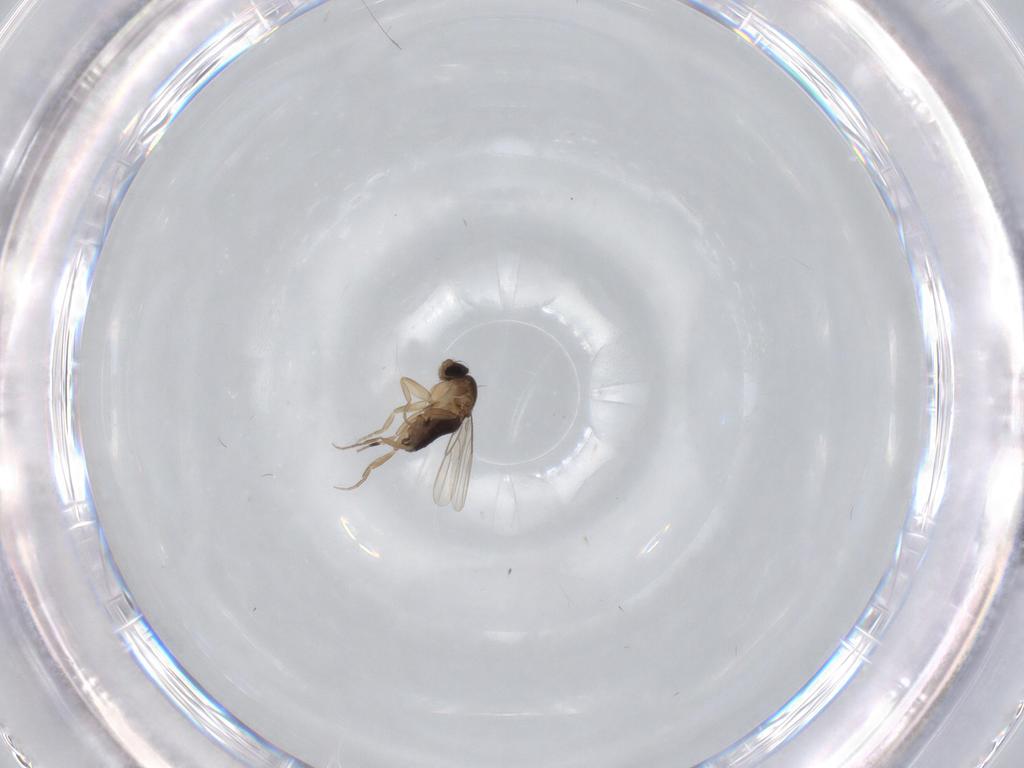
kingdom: Animalia
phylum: Arthropoda
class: Insecta
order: Diptera
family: Phoridae
